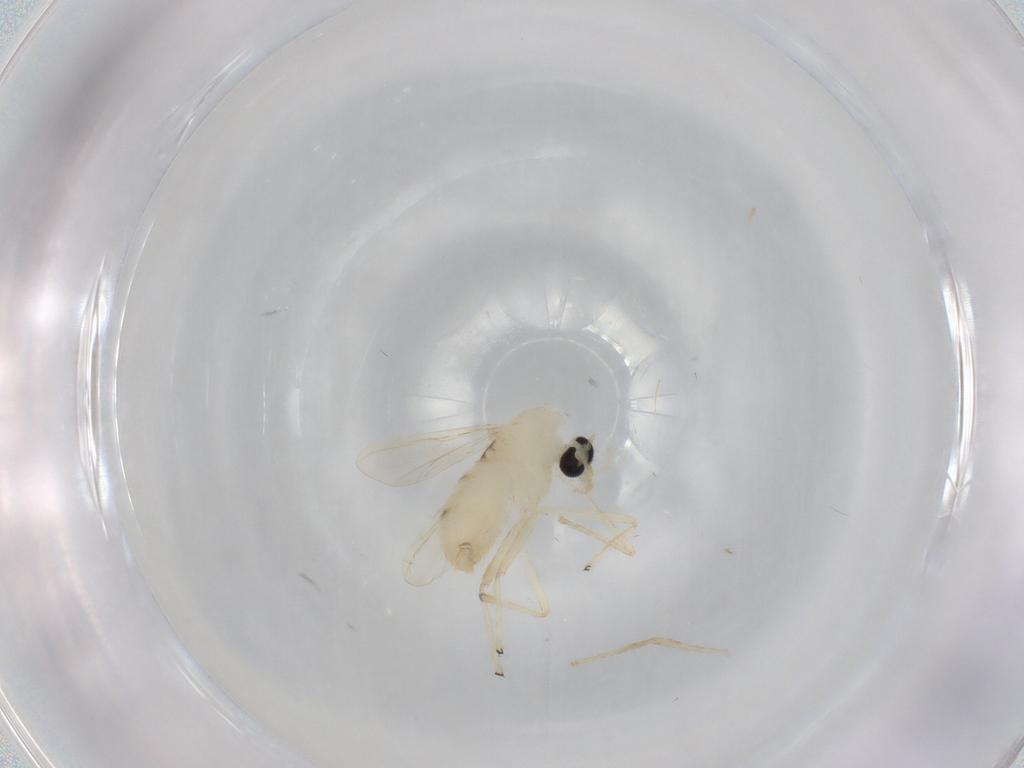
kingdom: Animalia
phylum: Arthropoda
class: Insecta
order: Diptera
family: Chironomidae
